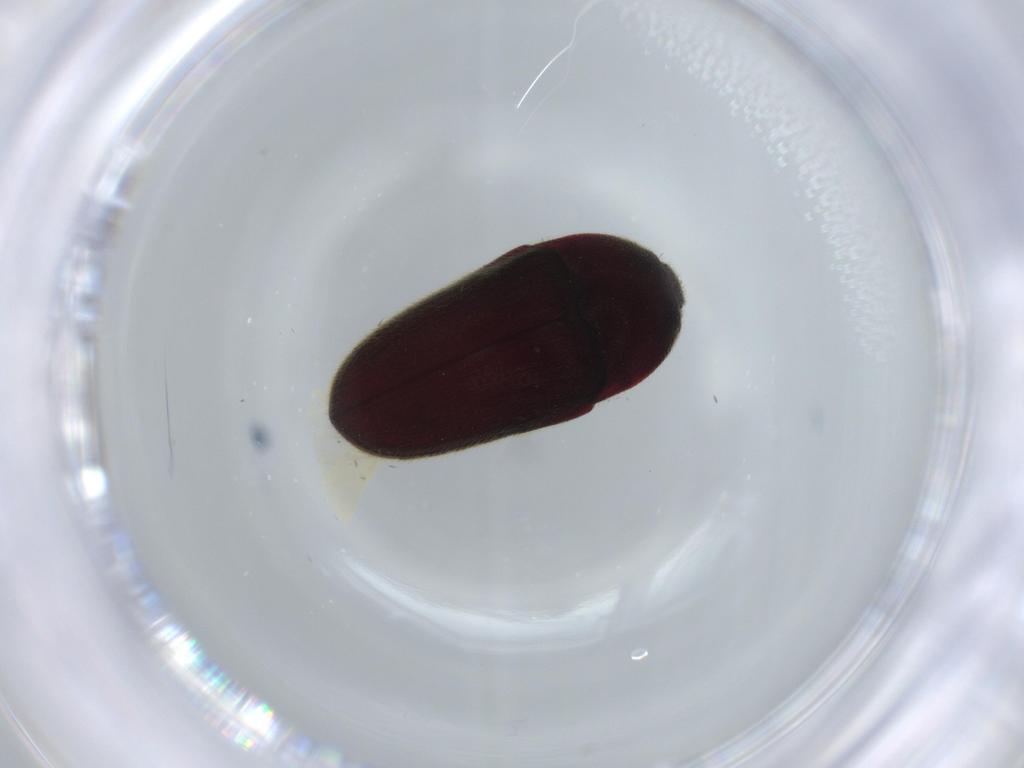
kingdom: Animalia
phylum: Arthropoda
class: Insecta
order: Coleoptera
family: Throscidae
